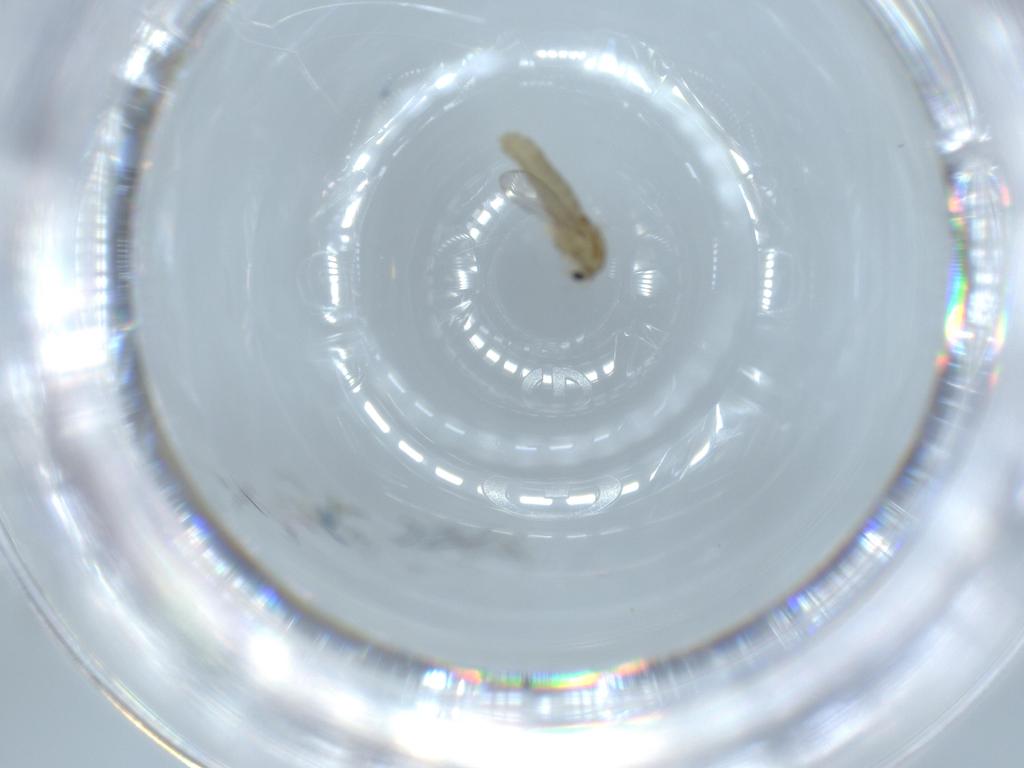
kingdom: Animalia
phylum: Arthropoda
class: Insecta
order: Diptera
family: Chironomidae
